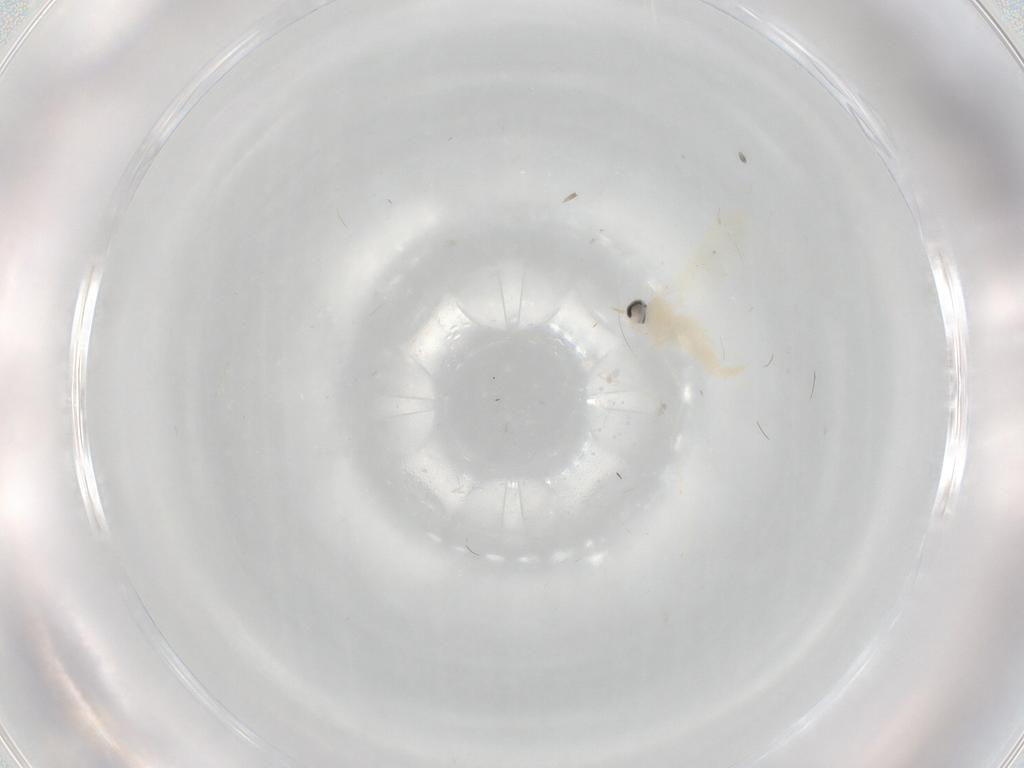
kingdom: Animalia
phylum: Arthropoda
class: Insecta
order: Diptera
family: Cecidomyiidae
